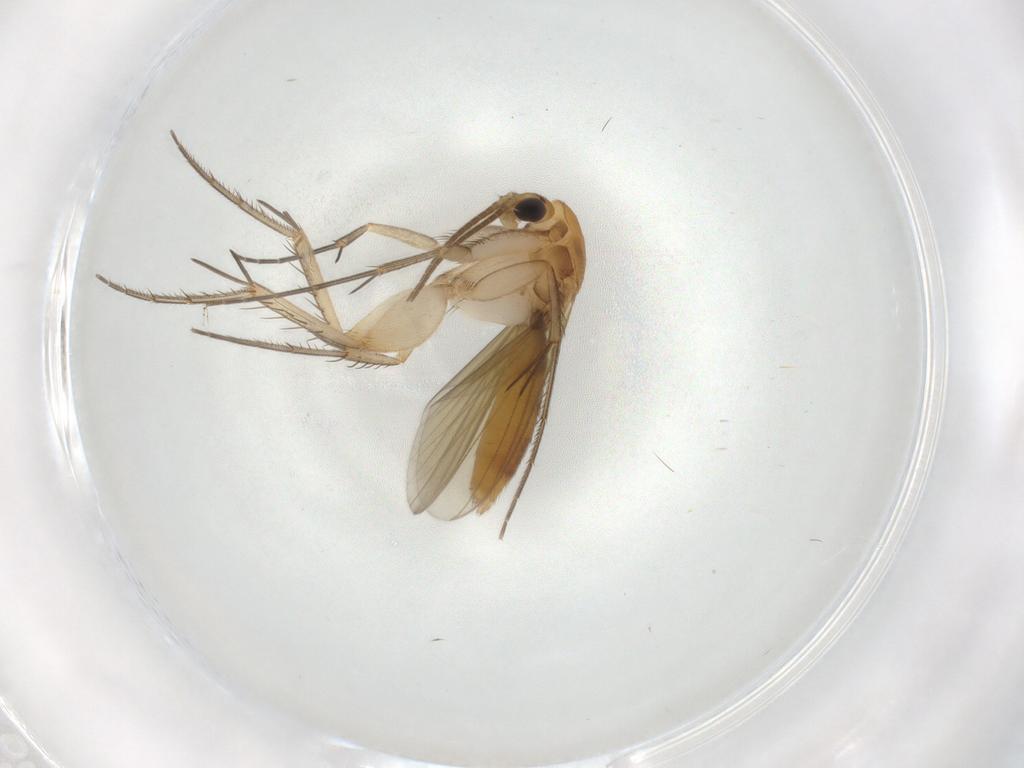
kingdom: Animalia
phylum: Arthropoda
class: Insecta
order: Diptera
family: Mycetophilidae
